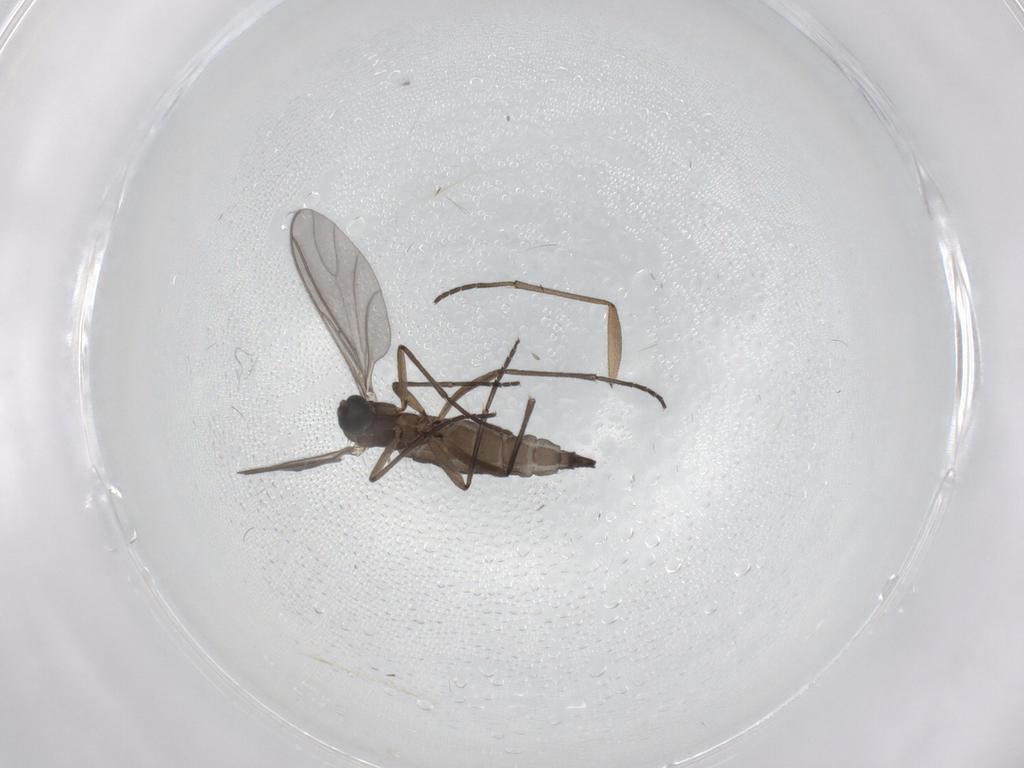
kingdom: Animalia
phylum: Arthropoda
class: Insecta
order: Diptera
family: Sciaridae
